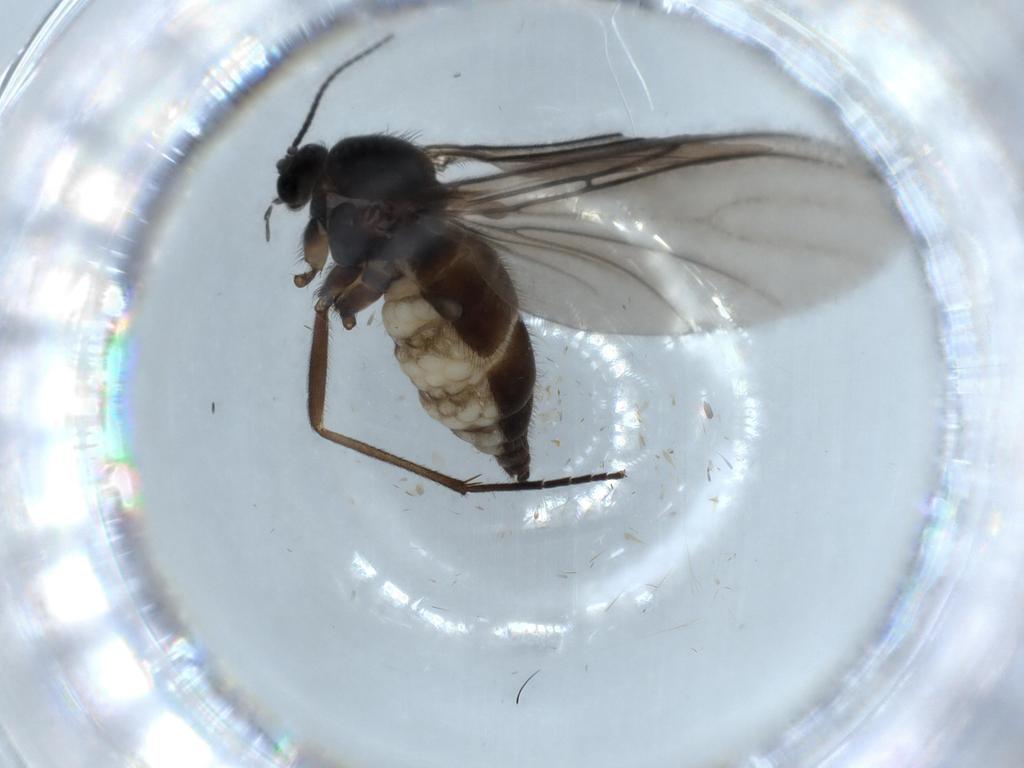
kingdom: Animalia
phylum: Arthropoda
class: Insecta
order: Diptera
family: Sciaridae
